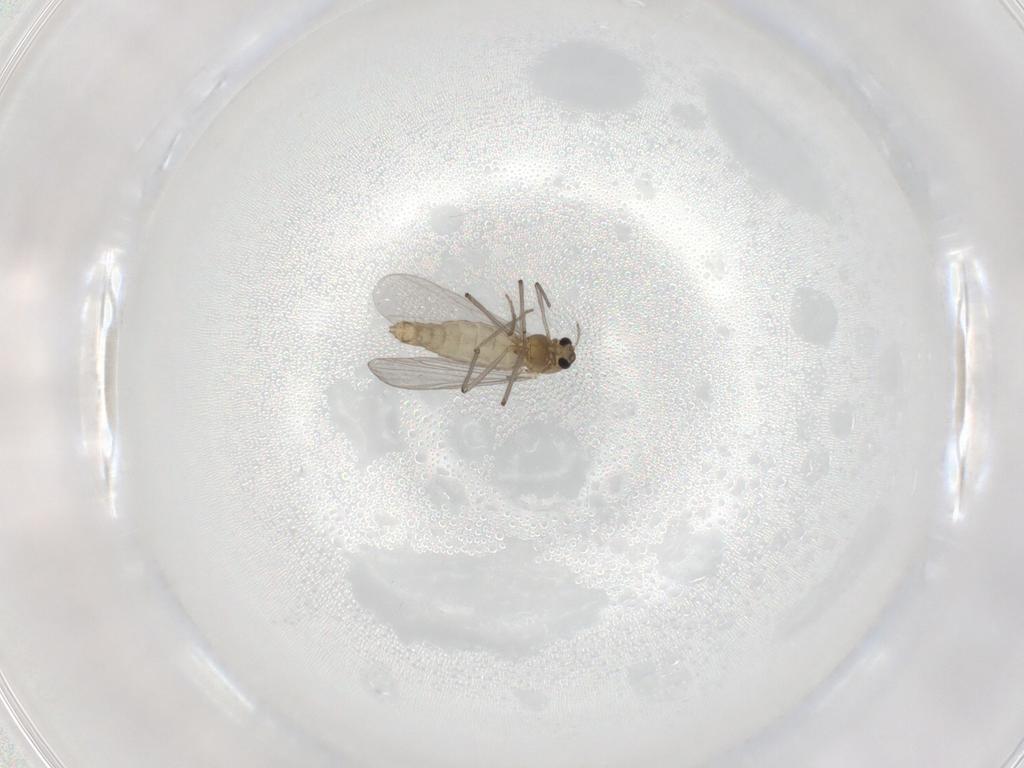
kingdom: Animalia
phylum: Arthropoda
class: Insecta
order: Diptera
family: Chironomidae
